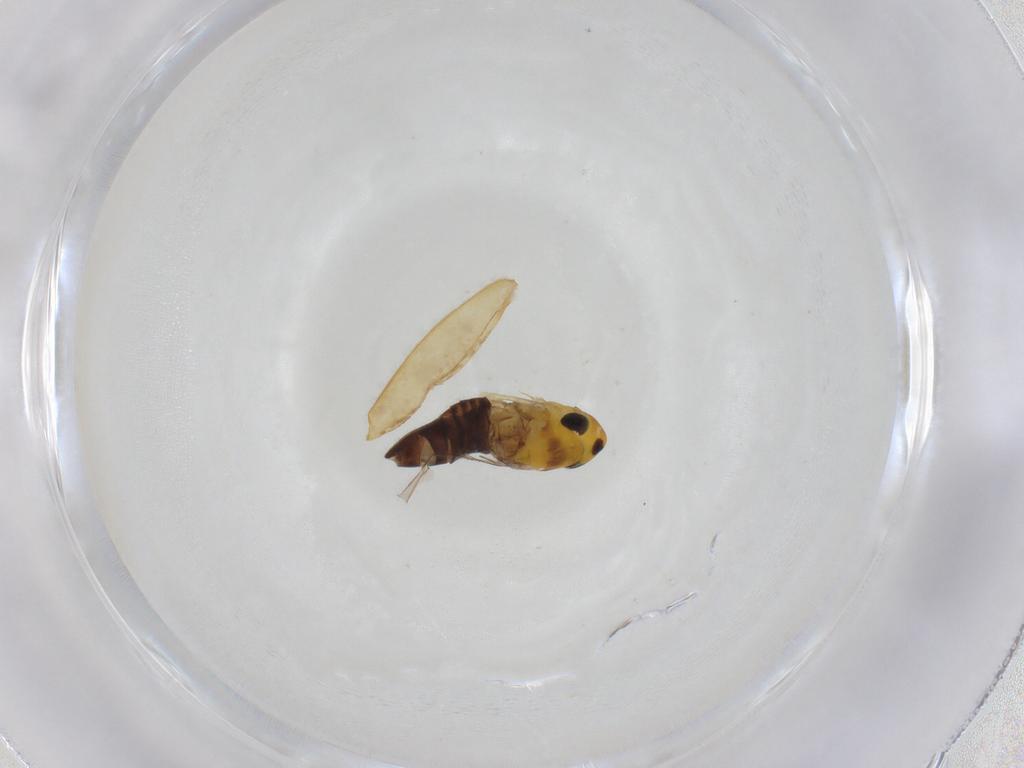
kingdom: Animalia
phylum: Arthropoda
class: Insecta
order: Hemiptera
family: Cicadellidae
